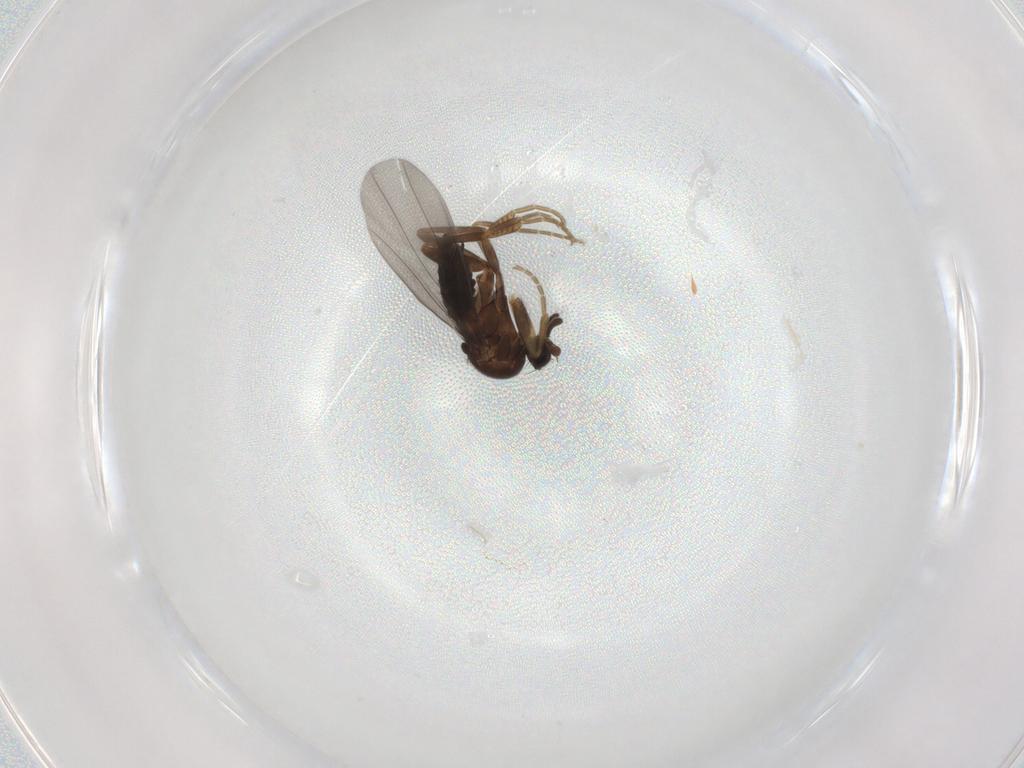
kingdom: Animalia
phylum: Arthropoda
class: Insecta
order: Diptera
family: Phoridae
